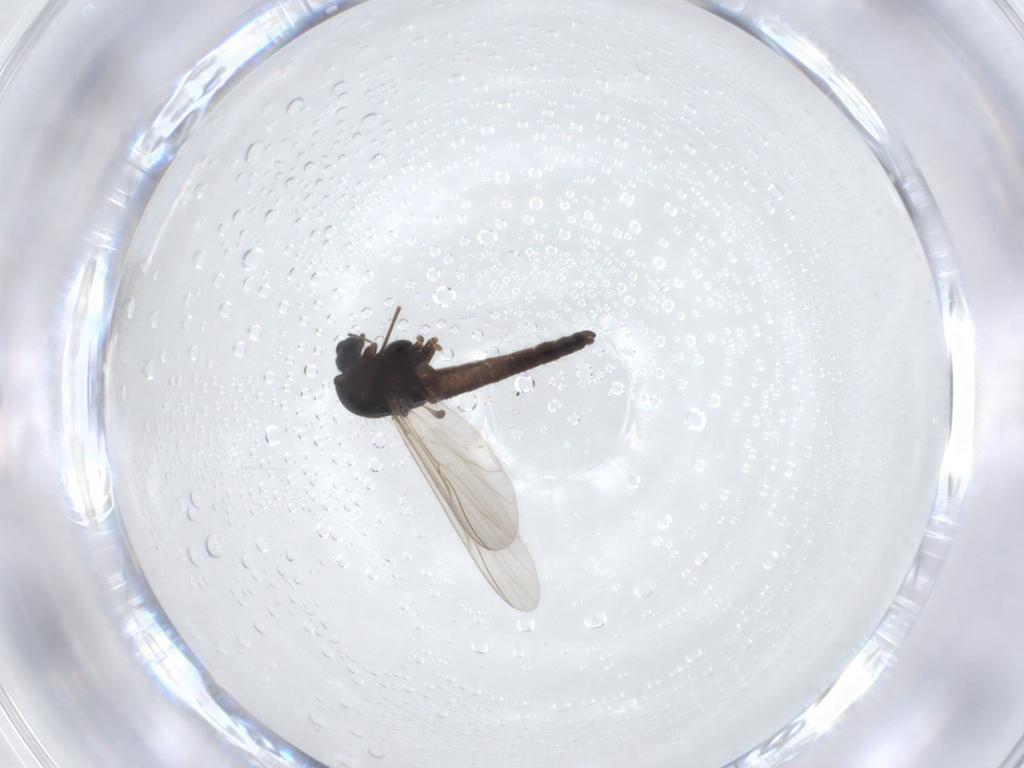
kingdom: Animalia
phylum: Arthropoda
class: Insecta
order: Diptera
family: Chironomidae
